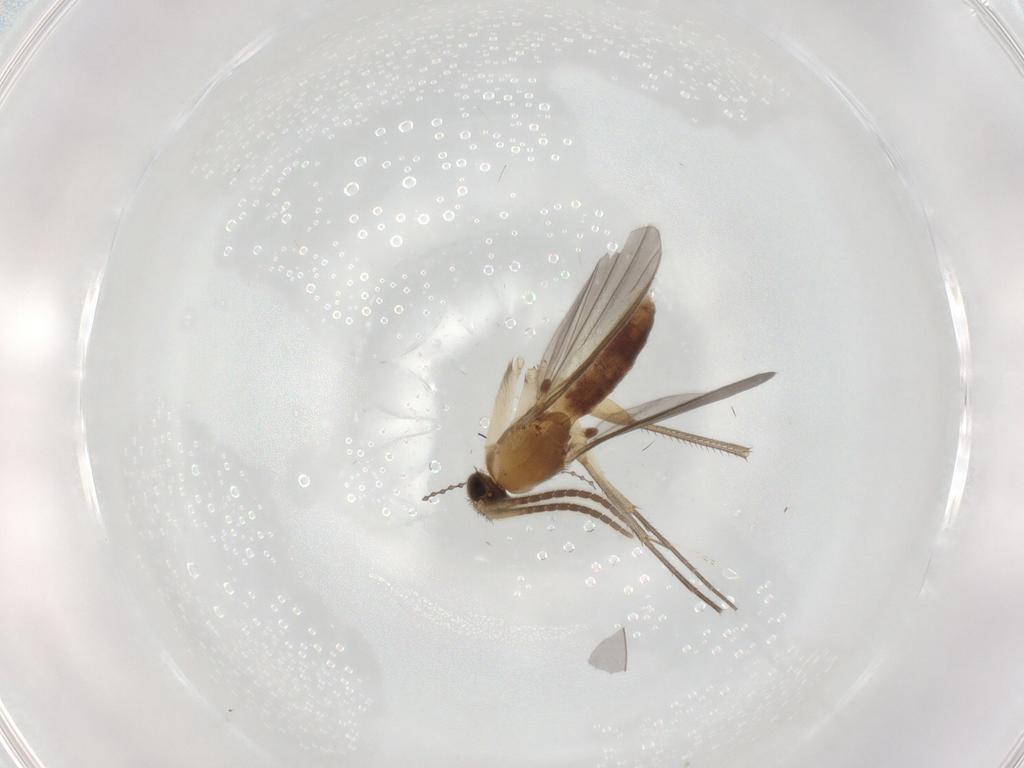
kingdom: Animalia
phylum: Arthropoda
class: Insecta
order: Diptera
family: Mycetophilidae
